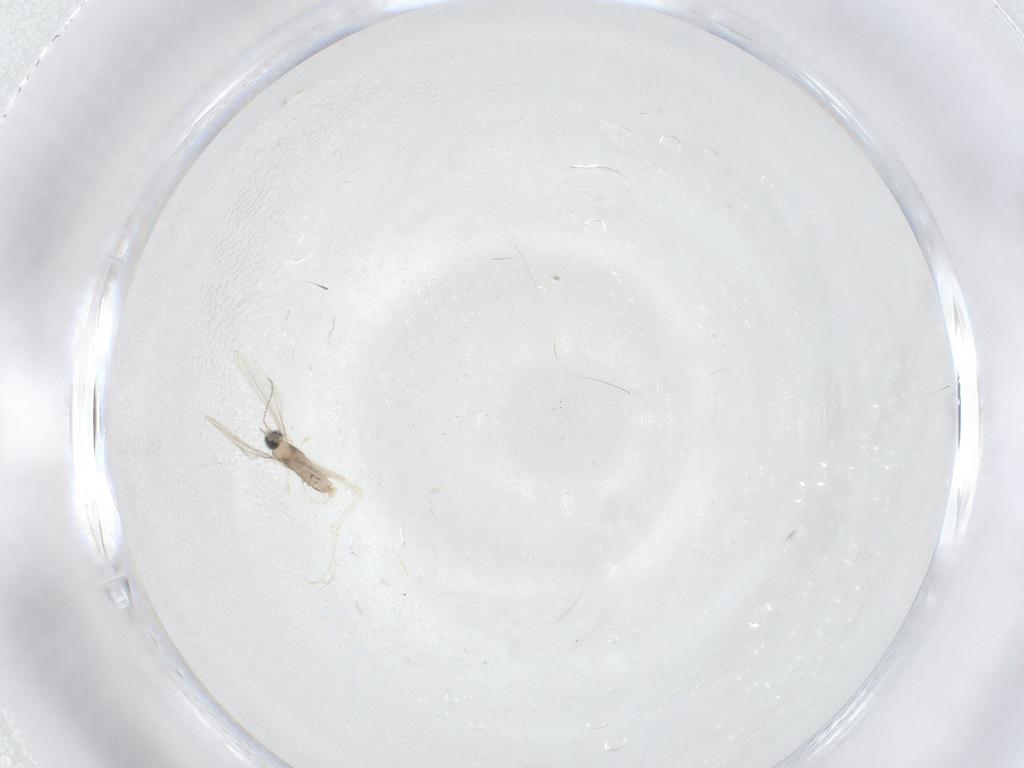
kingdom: Animalia
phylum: Arthropoda
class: Insecta
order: Diptera
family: Cecidomyiidae
